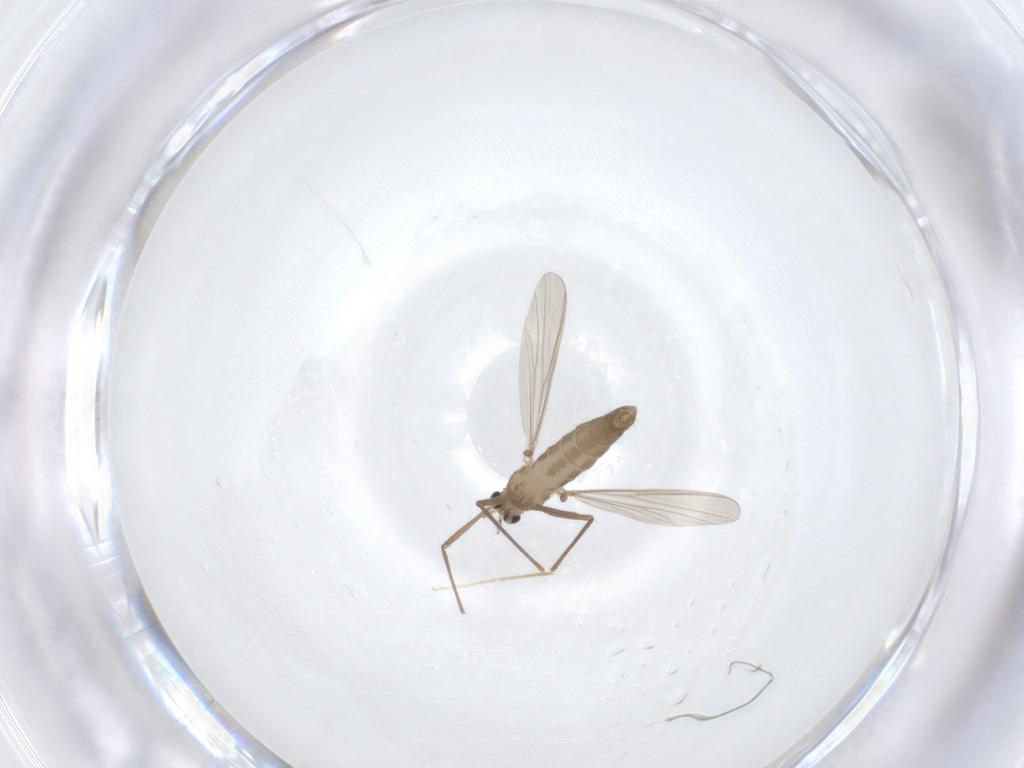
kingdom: Animalia
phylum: Arthropoda
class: Insecta
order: Diptera
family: Chironomidae
